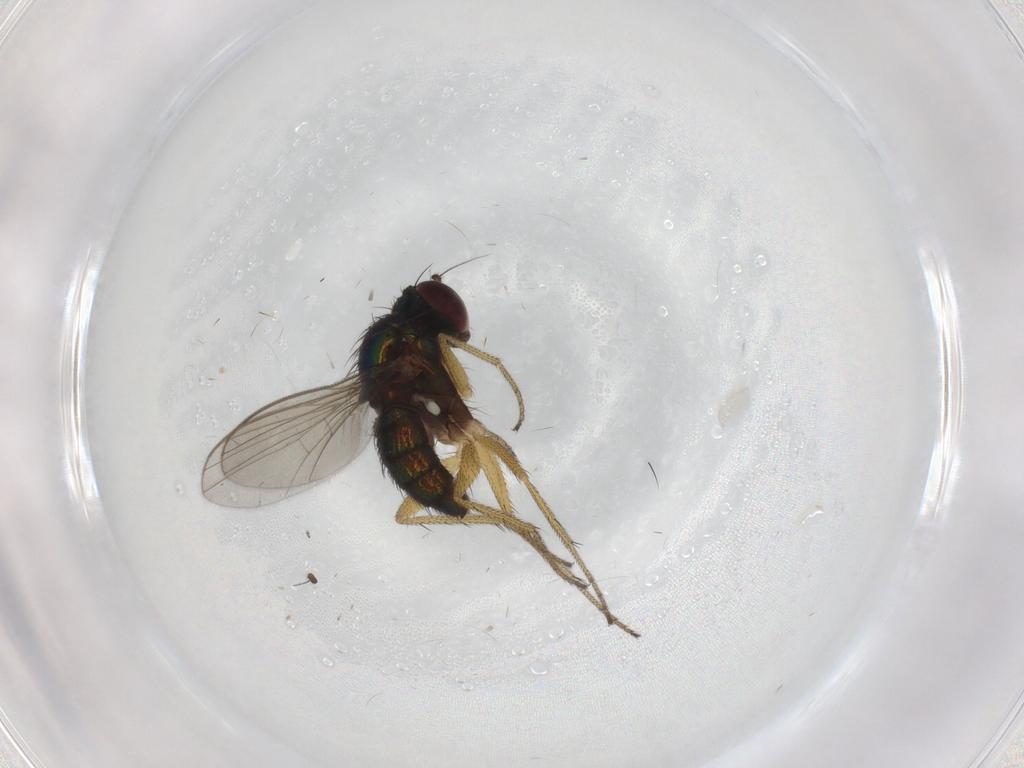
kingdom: Animalia
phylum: Arthropoda
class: Insecta
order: Diptera
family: Dolichopodidae
